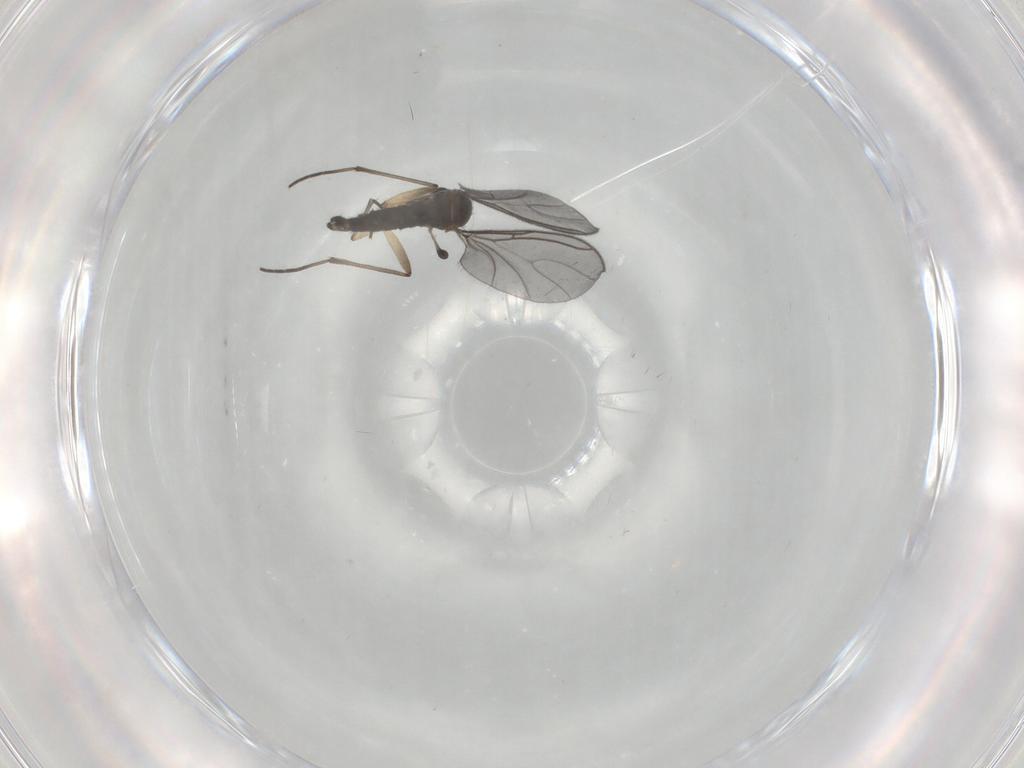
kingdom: Animalia
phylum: Arthropoda
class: Insecta
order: Diptera
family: Sciaridae
